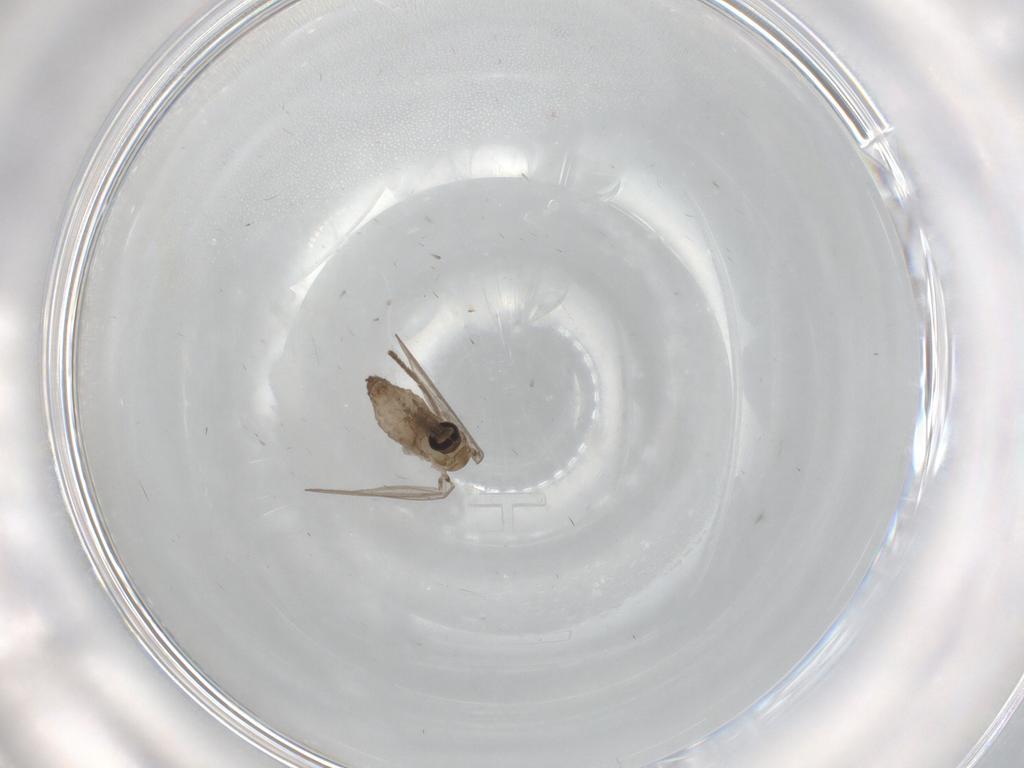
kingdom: Animalia
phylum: Arthropoda
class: Insecta
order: Diptera
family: Psychodidae
